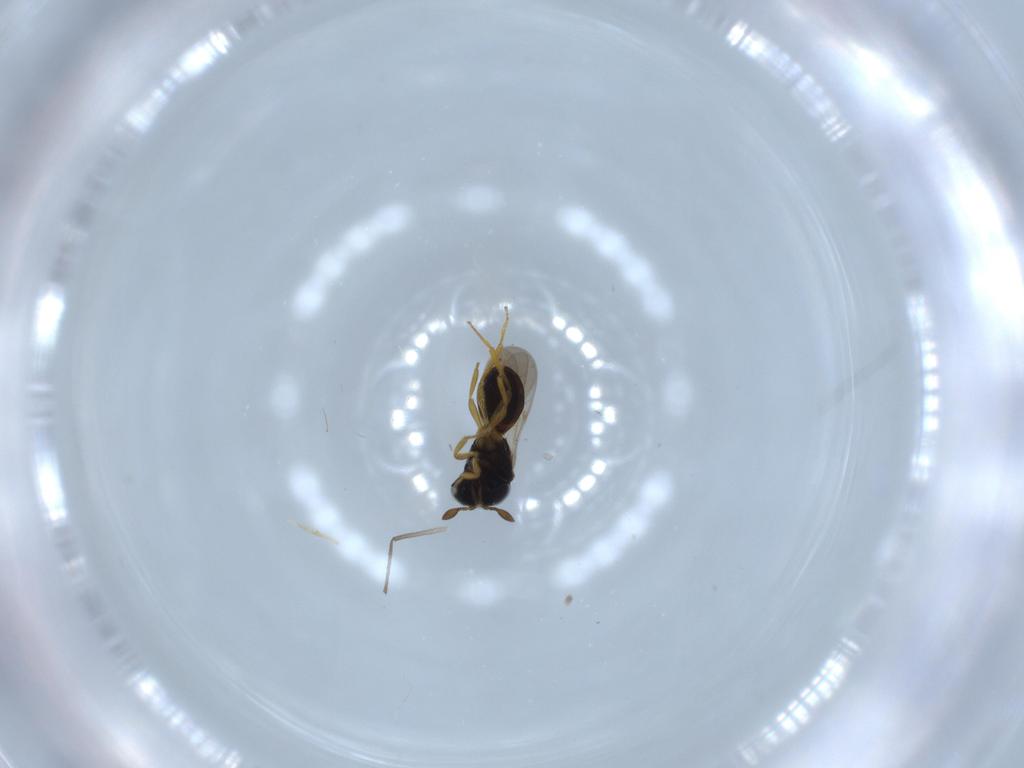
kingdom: Animalia
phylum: Arthropoda
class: Insecta
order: Hymenoptera
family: Scelionidae
